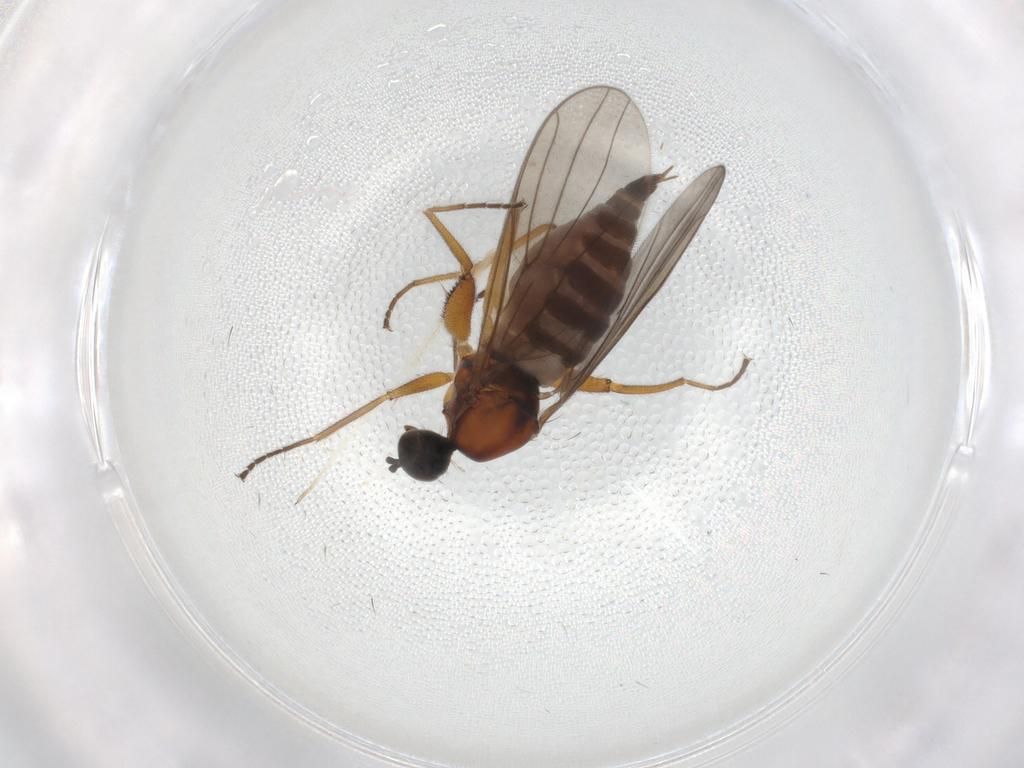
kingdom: Animalia
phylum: Arthropoda
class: Insecta
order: Diptera
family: Hybotidae
